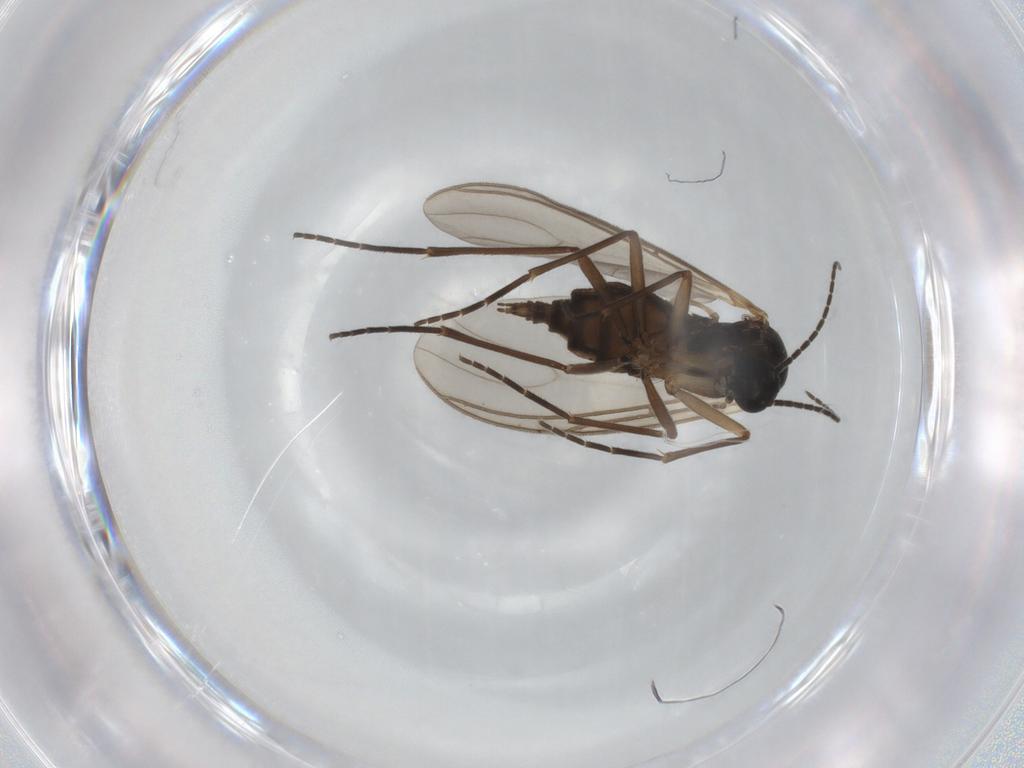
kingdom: Animalia
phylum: Arthropoda
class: Insecta
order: Diptera
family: Sciaridae
